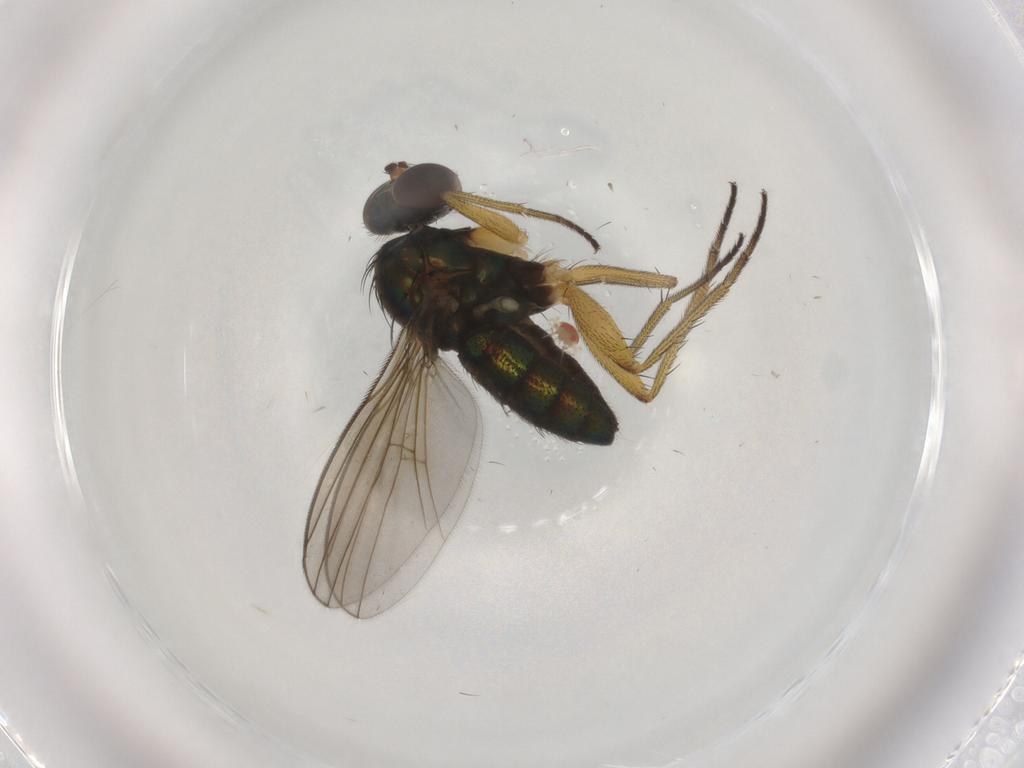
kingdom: Animalia
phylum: Arthropoda
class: Insecta
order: Diptera
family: Dolichopodidae
